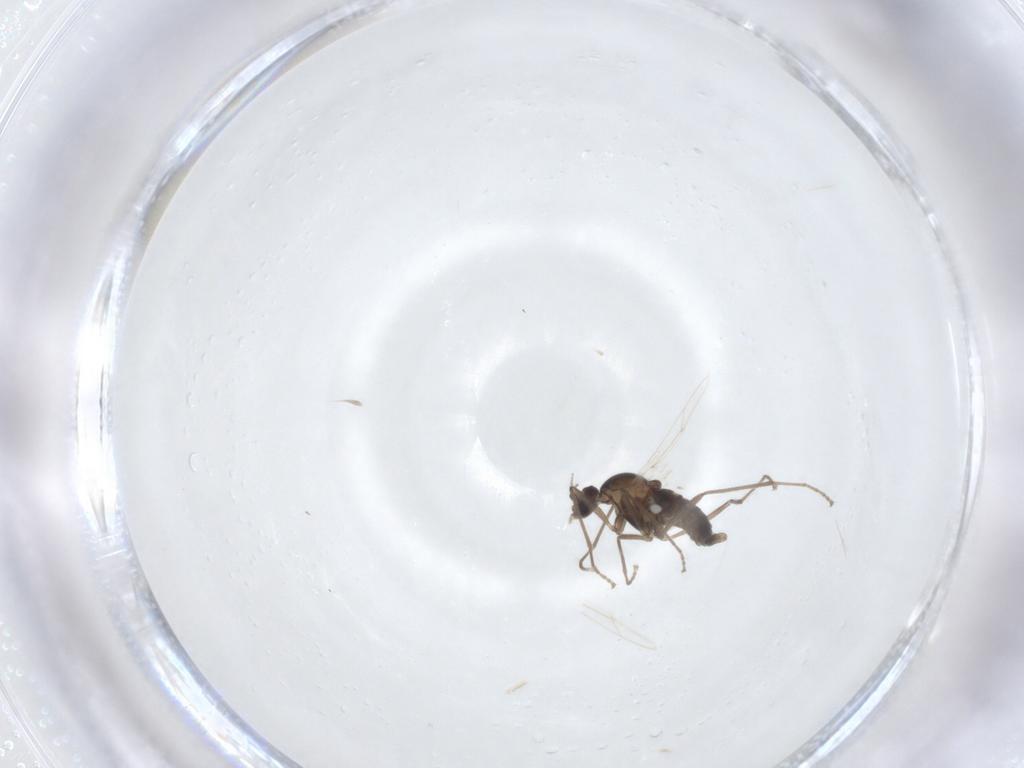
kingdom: Animalia
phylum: Arthropoda
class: Insecta
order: Diptera
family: Cecidomyiidae
